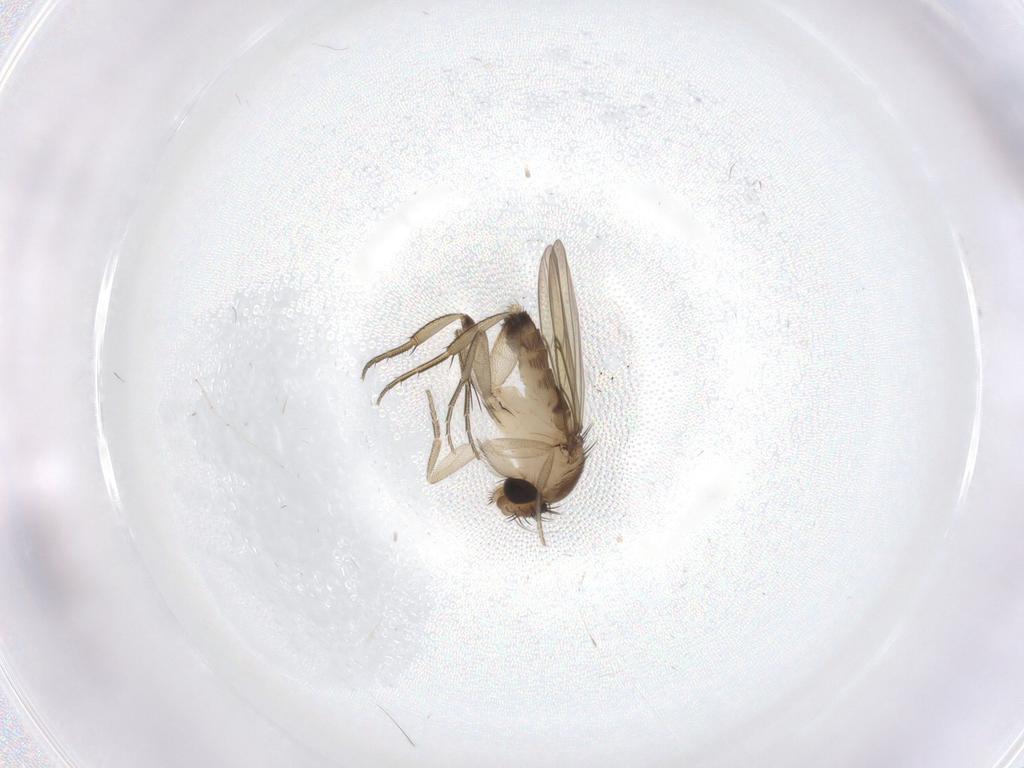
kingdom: Animalia
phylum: Arthropoda
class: Insecta
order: Diptera
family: Phoridae
